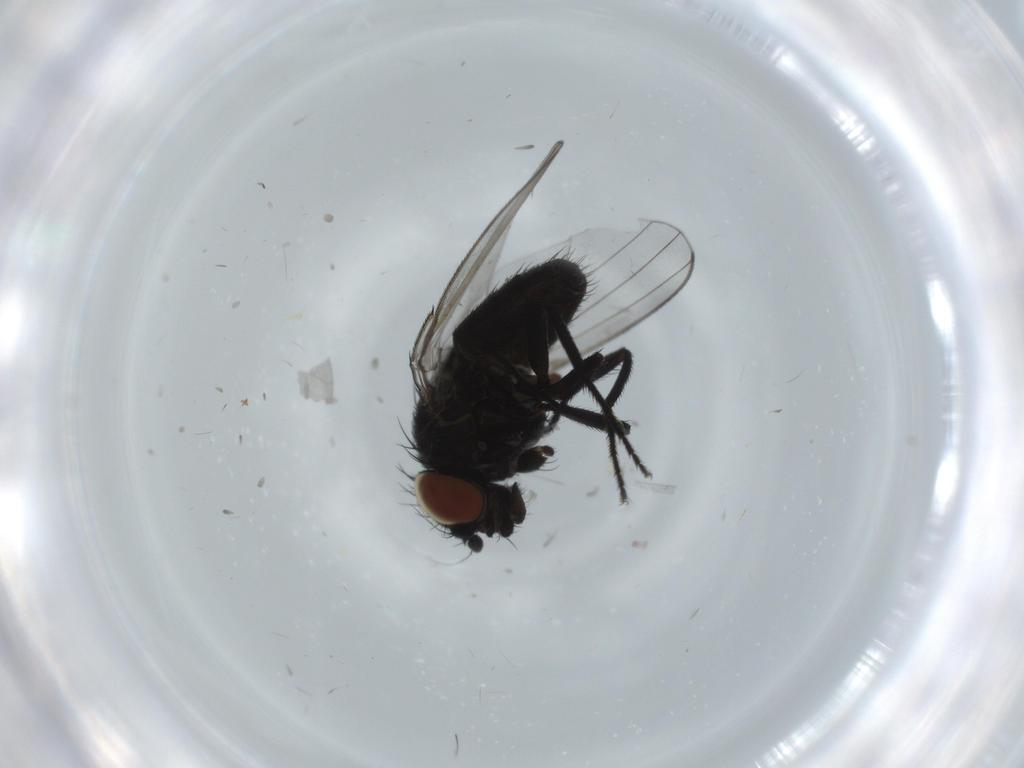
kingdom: Animalia
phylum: Arthropoda
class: Insecta
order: Diptera
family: Milichiidae
